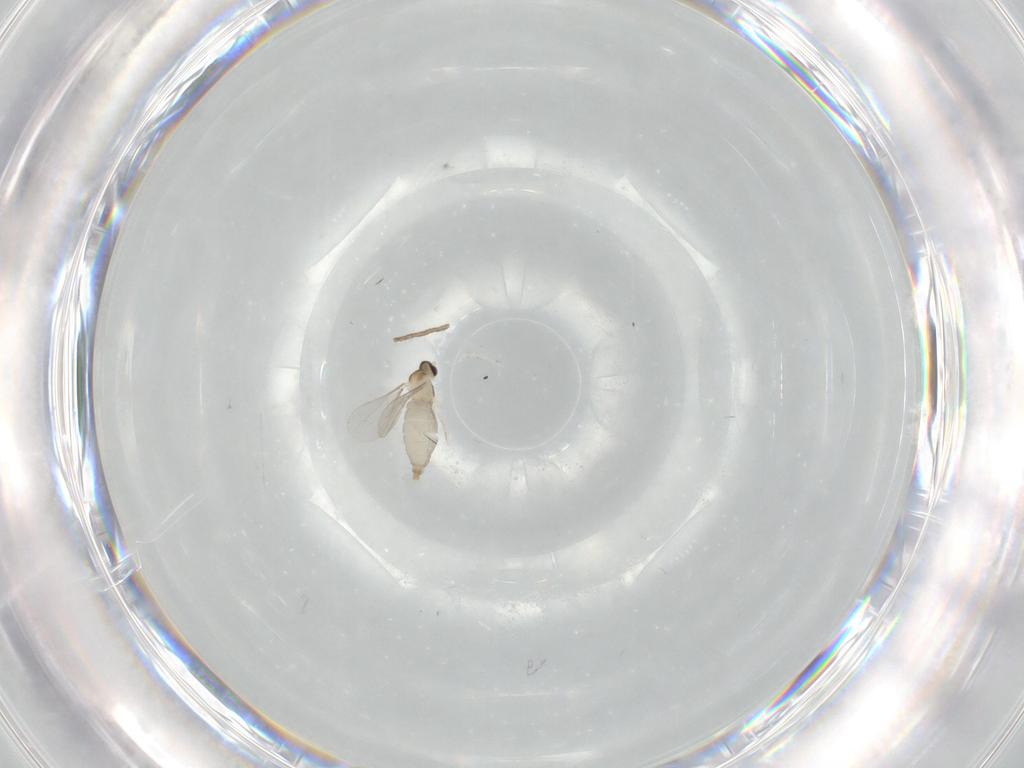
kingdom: Animalia
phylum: Arthropoda
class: Insecta
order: Diptera
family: Cecidomyiidae
